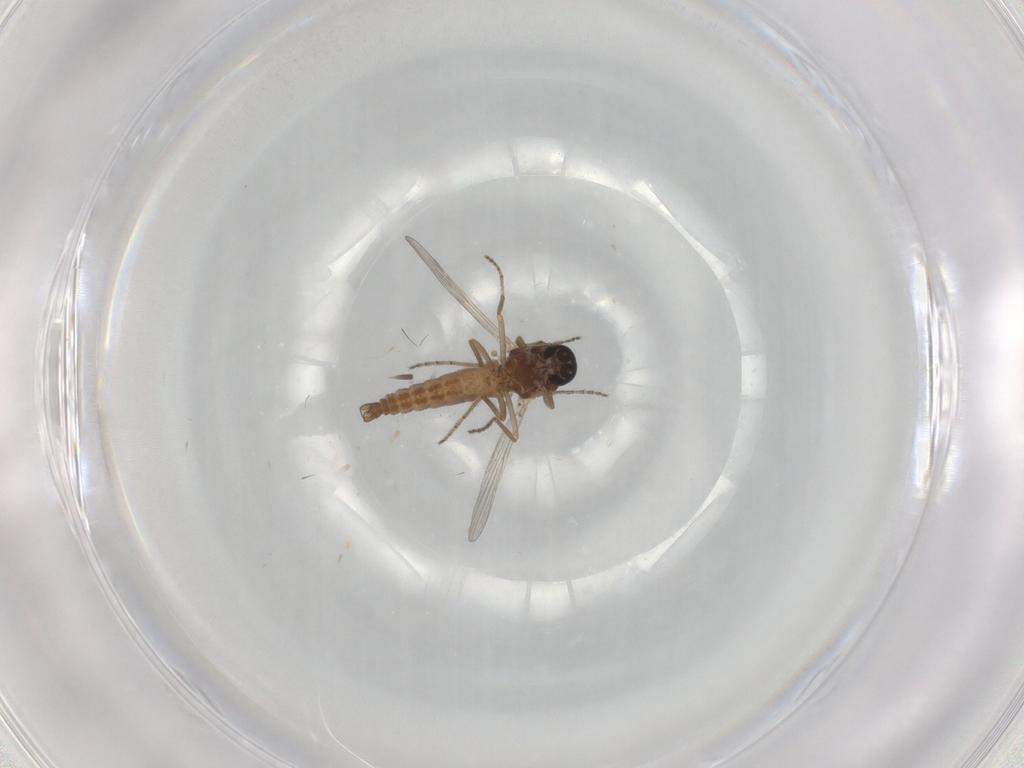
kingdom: Animalia
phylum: Arthropoda
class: Insecta
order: Diptera
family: Ceratopogonidae
